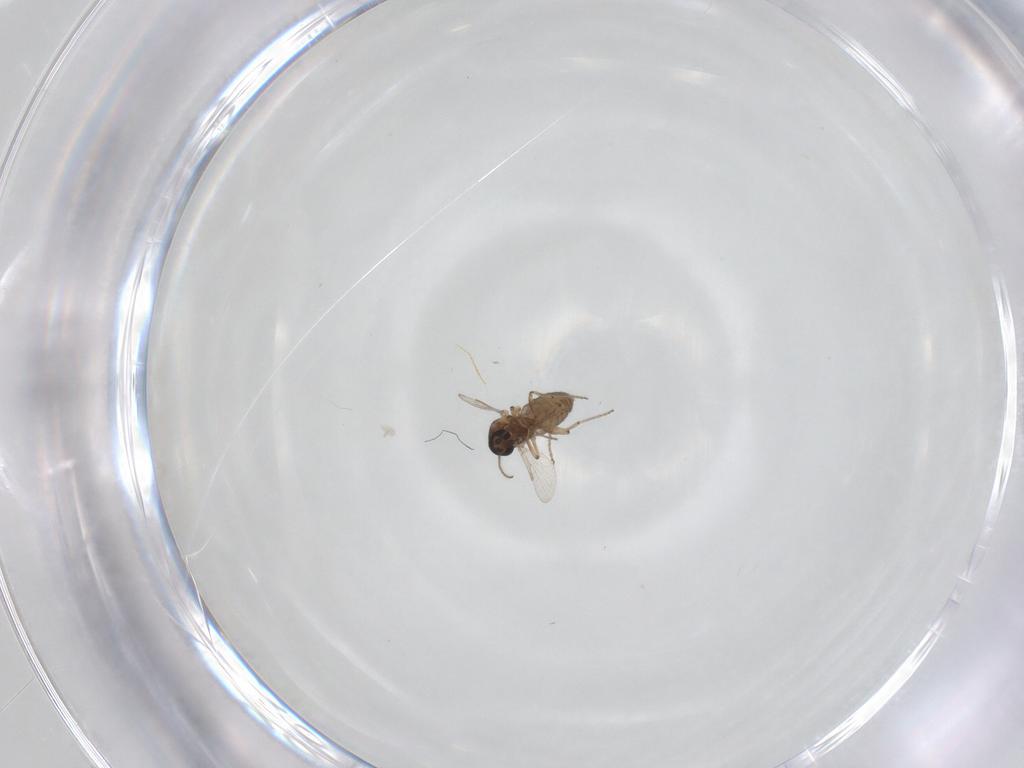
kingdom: Animalia
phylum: Arthropoda
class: Insecta
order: Diptera
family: Ceratopogonidae
